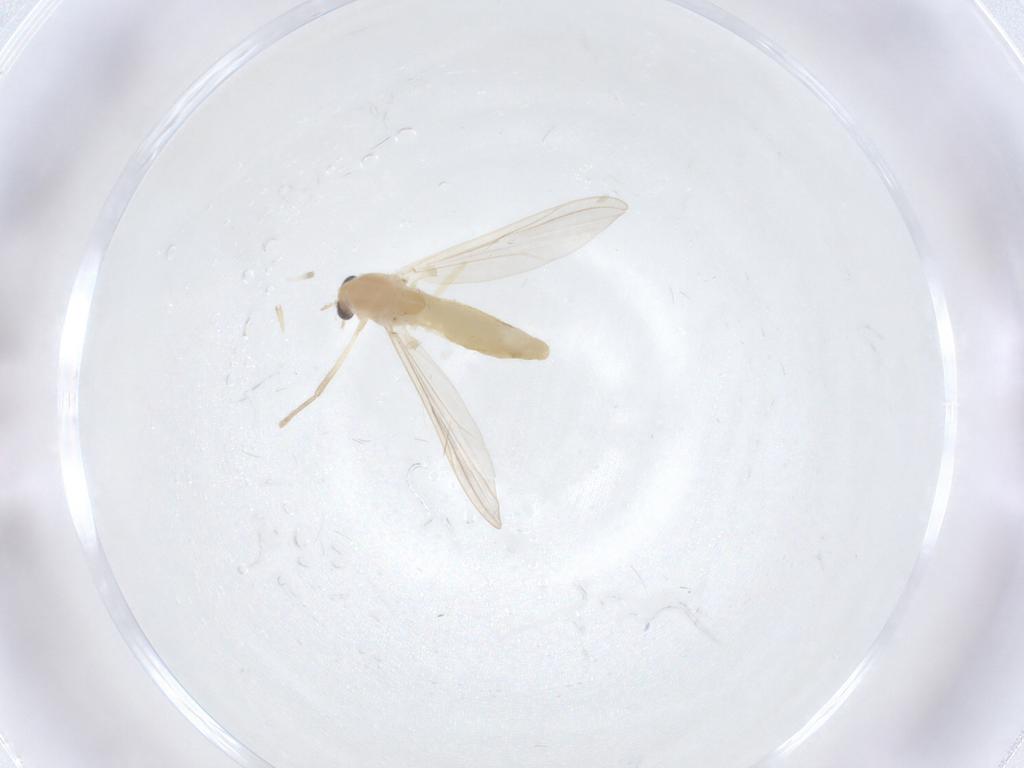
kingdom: Animalia
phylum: Arthropoda
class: Insecta
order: Diptera
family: Chironomidae
